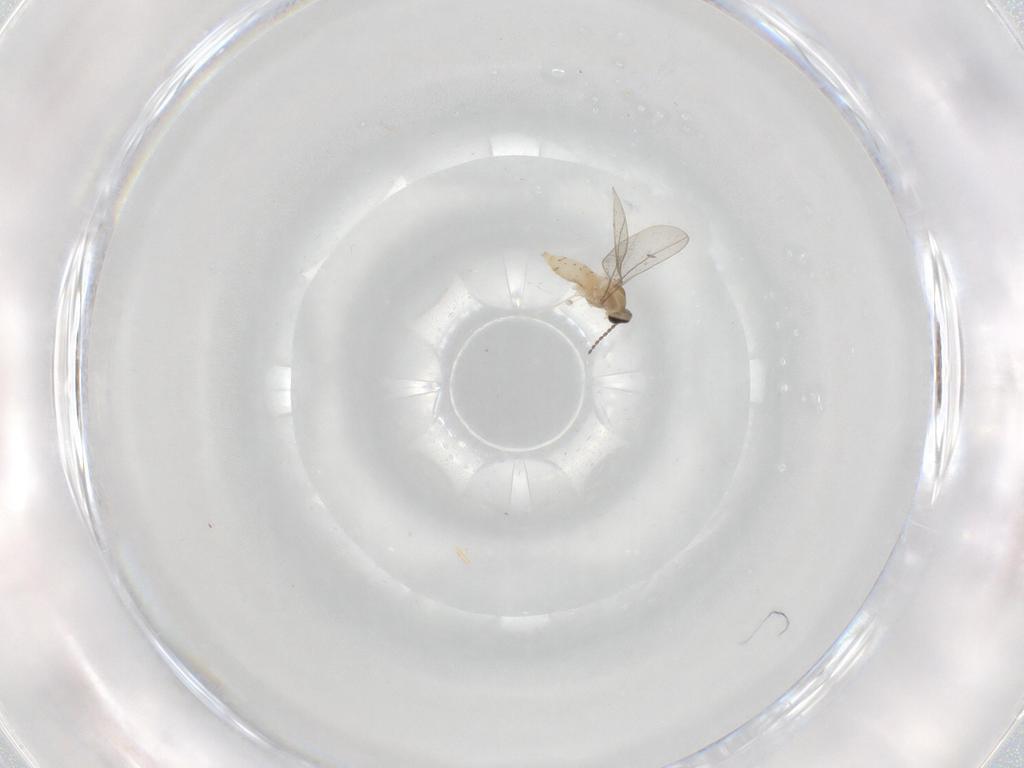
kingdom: Animalia
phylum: Arthropoda
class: Insecta
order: Diptera
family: Cecidomyiidae
